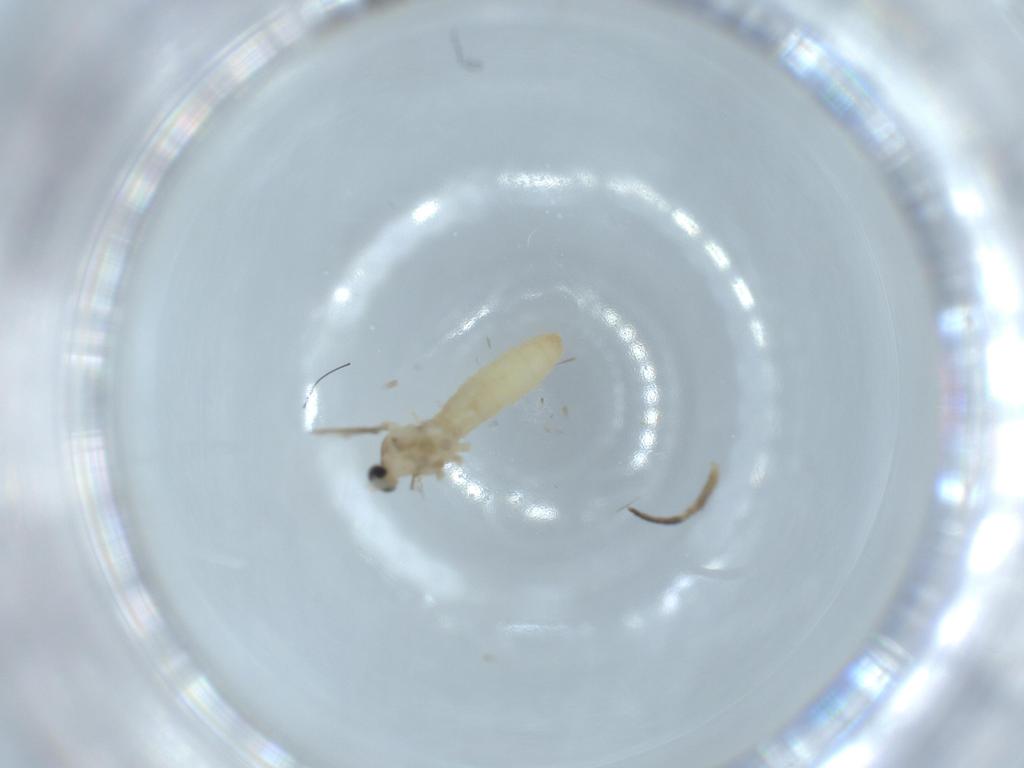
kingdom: Animalia
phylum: Arthropoda
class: Insecta
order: Diptera
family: Cecidomyiidae
